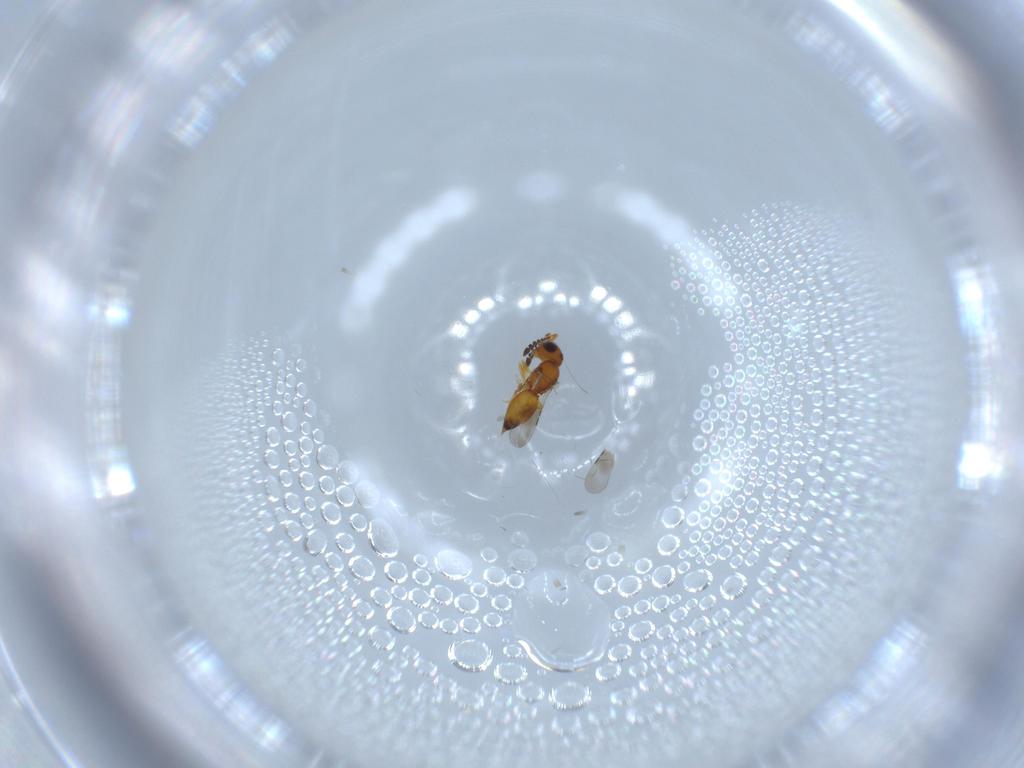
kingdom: Animalia
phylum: Arthropoda
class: Insecta
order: Hymenoptera
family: Ceraphronidae
